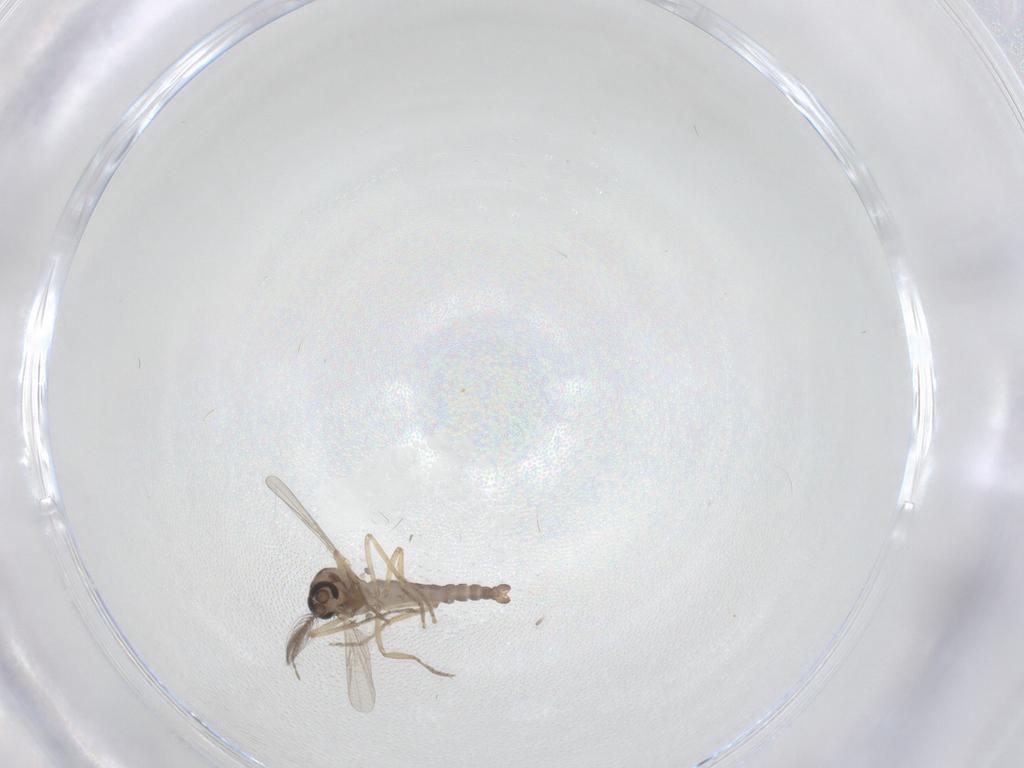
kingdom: Animalia
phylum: Arthropoda
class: Insecta
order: Diptera
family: Ceratopogonidae
